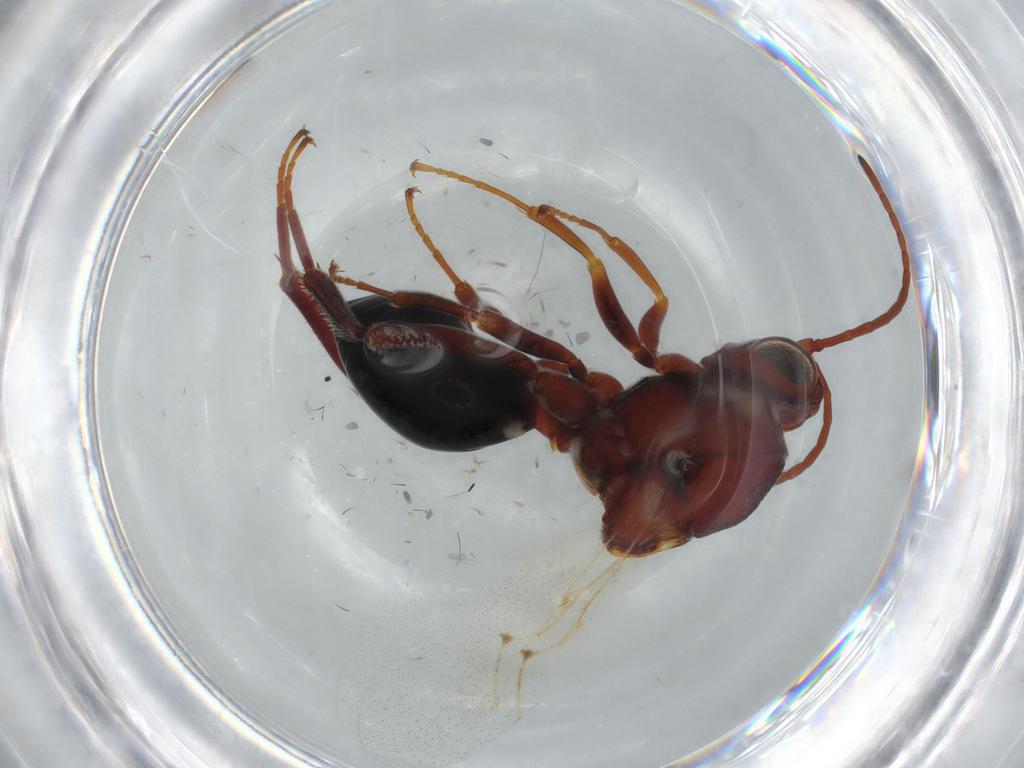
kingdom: Animalia
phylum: Arthropoda
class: Insecta
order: Hymenoptera
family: Figitidae
